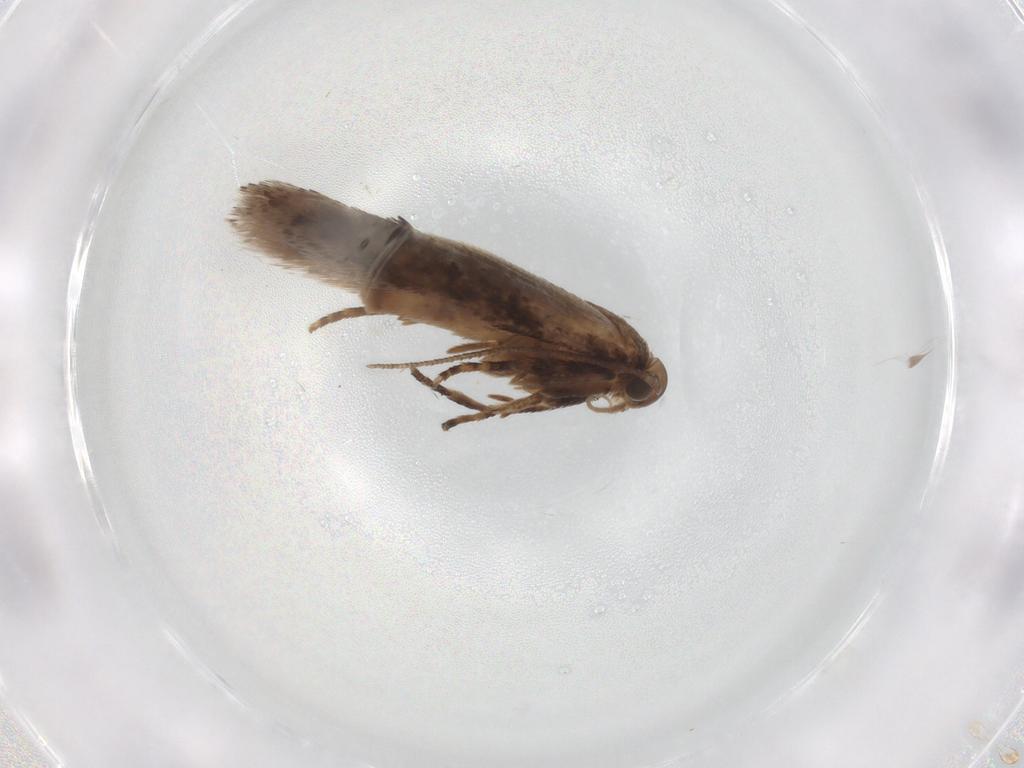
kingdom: Animalia
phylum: Arthropoda
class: Insecta
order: Lepidoptera
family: Gelechiidae
